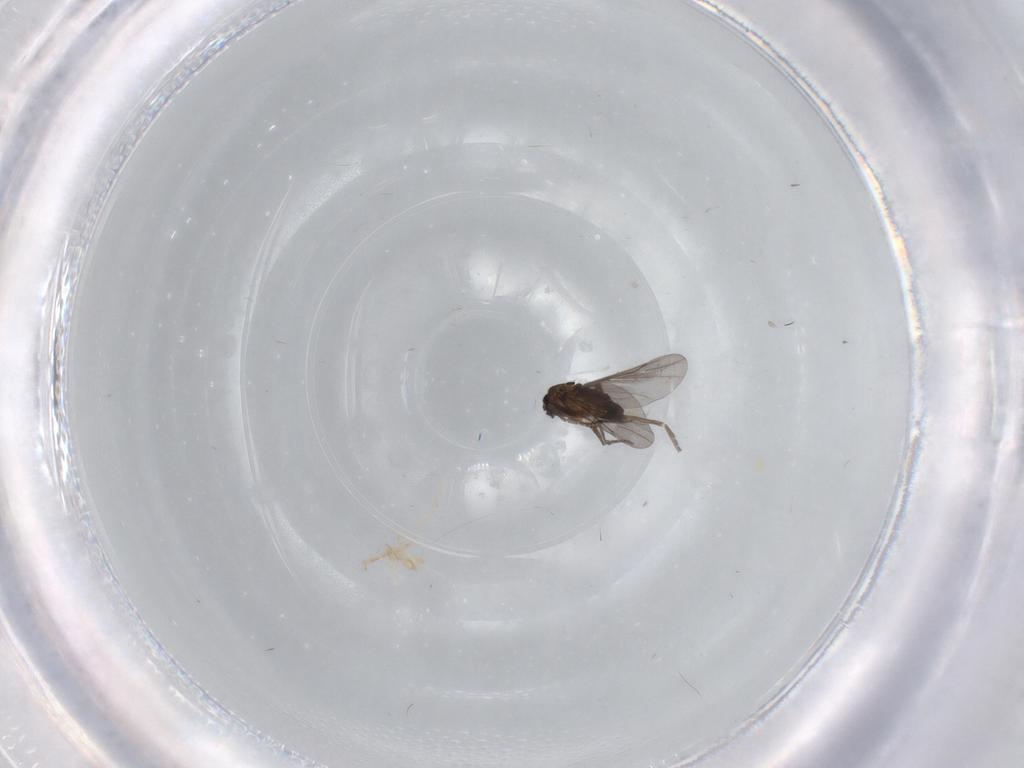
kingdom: Animalia
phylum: Arthropoda
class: Insecta
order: Diptera
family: Phoridae
